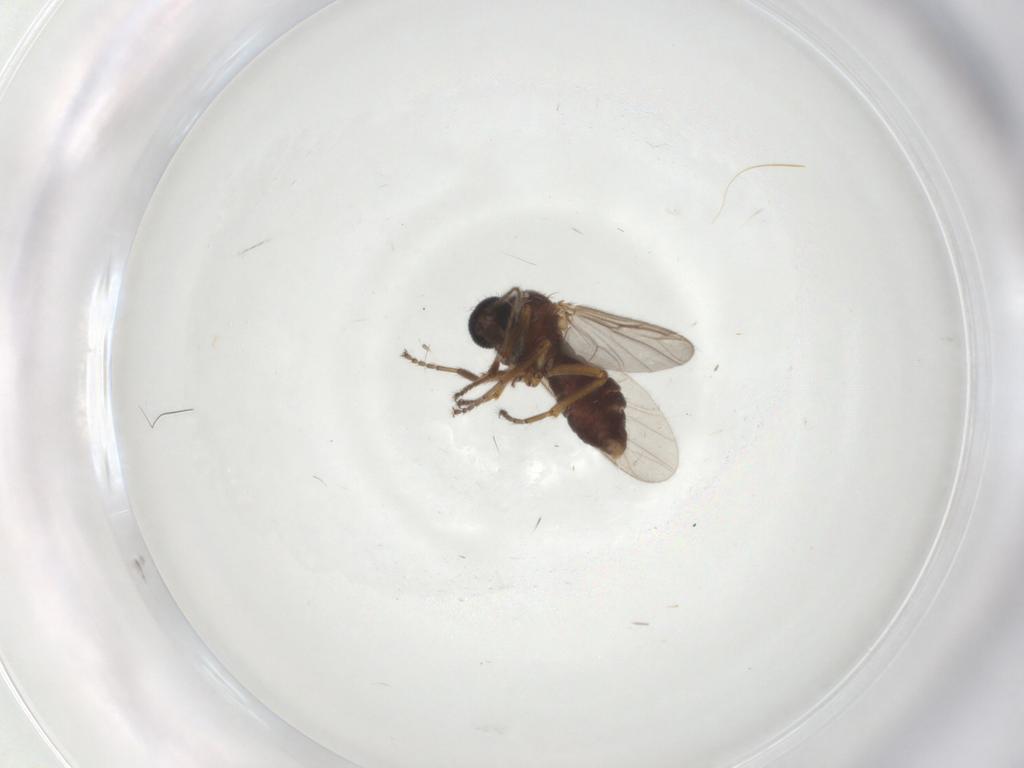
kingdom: Animalia
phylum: Arthropoda
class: Insecta
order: Diptera
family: Ceratopogonidae
